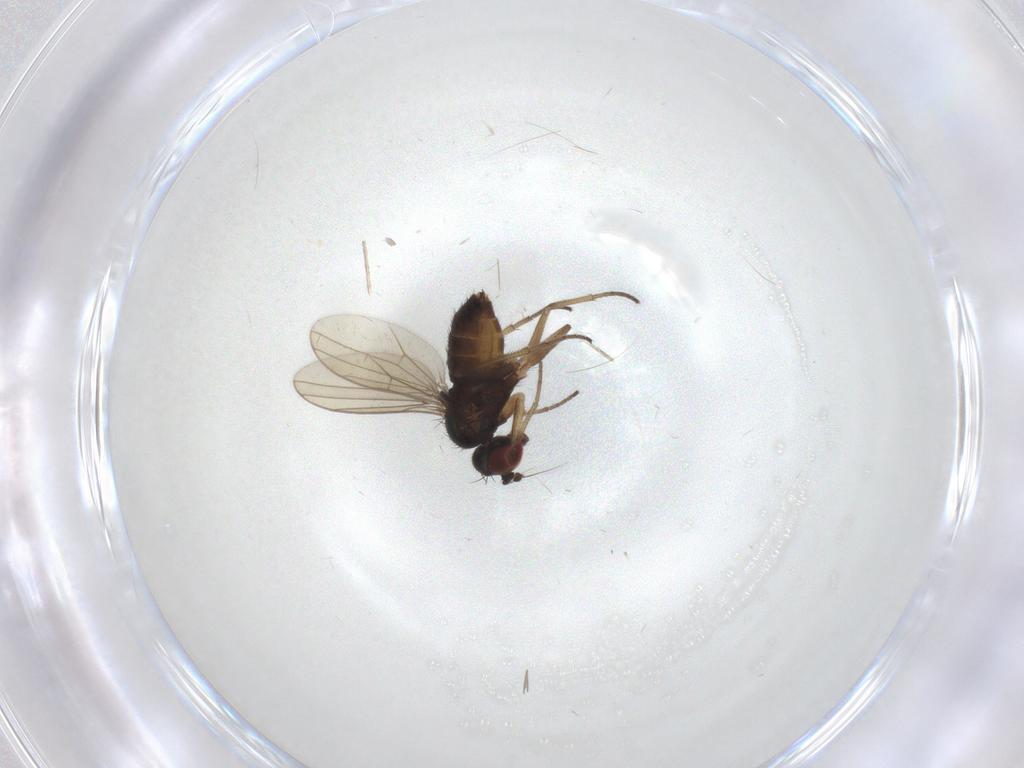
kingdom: Animalia
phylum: Arthropoda
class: Insecta
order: Diptera
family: Dolichopodidae
